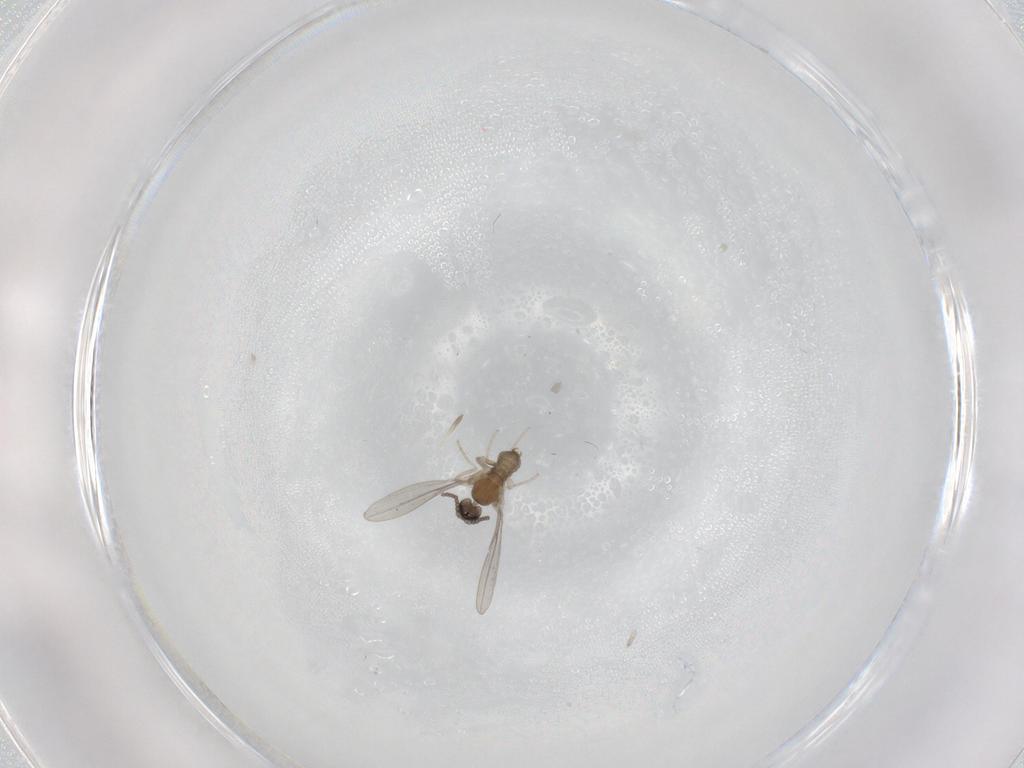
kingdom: Animalia
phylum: Arthropoda
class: Insecta
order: Diptera
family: Cecidomyiidae
